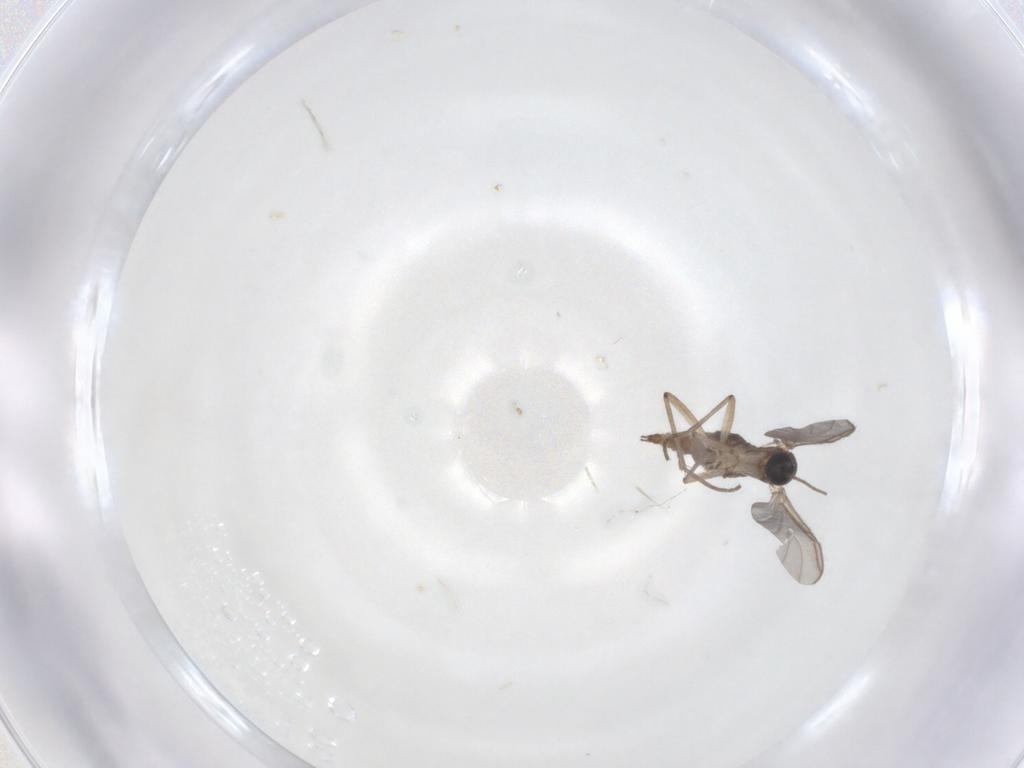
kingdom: Animalia
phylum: Arthropoda
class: Insecta
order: Diptera
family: Sciaridae
